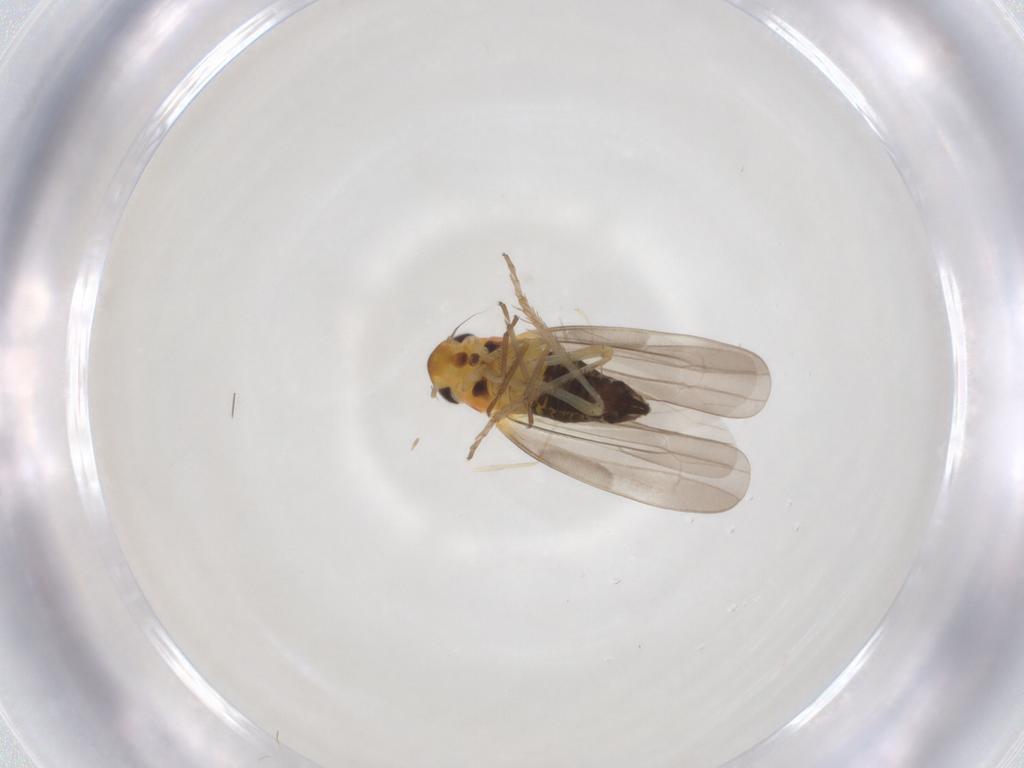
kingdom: Animalia
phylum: Arthropoda
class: Insecta
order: Hemiptera
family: Cicadellidae
